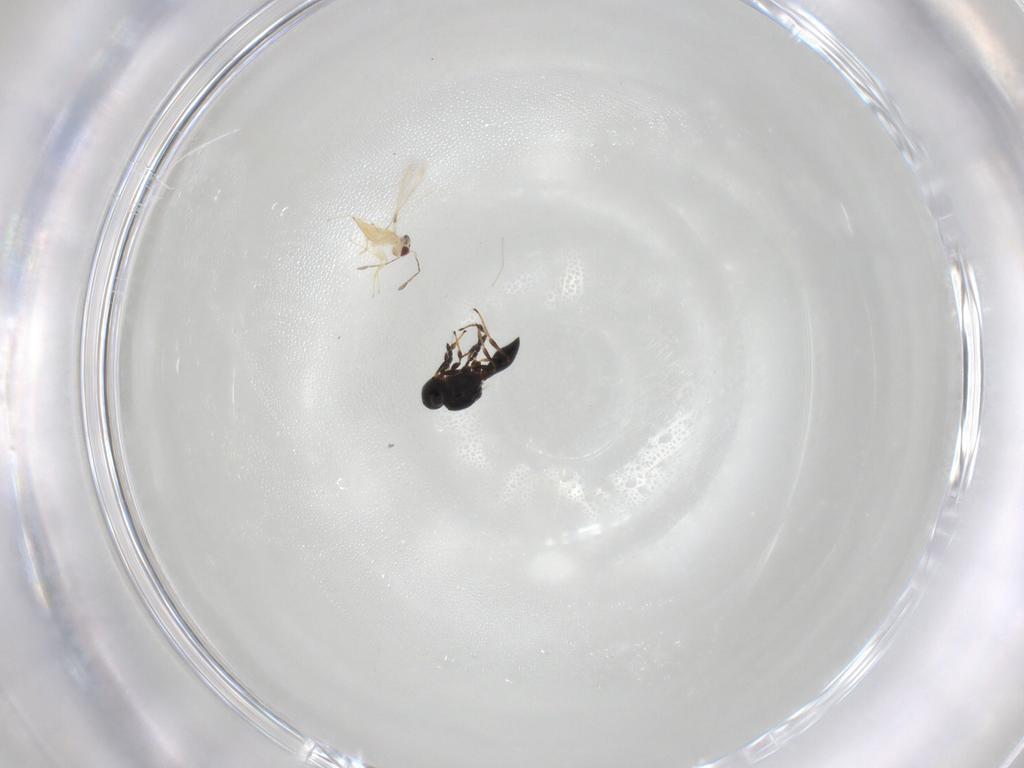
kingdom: Animalia
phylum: Arthropoda
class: Insecta
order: Hymenoptera
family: Platygastridae
